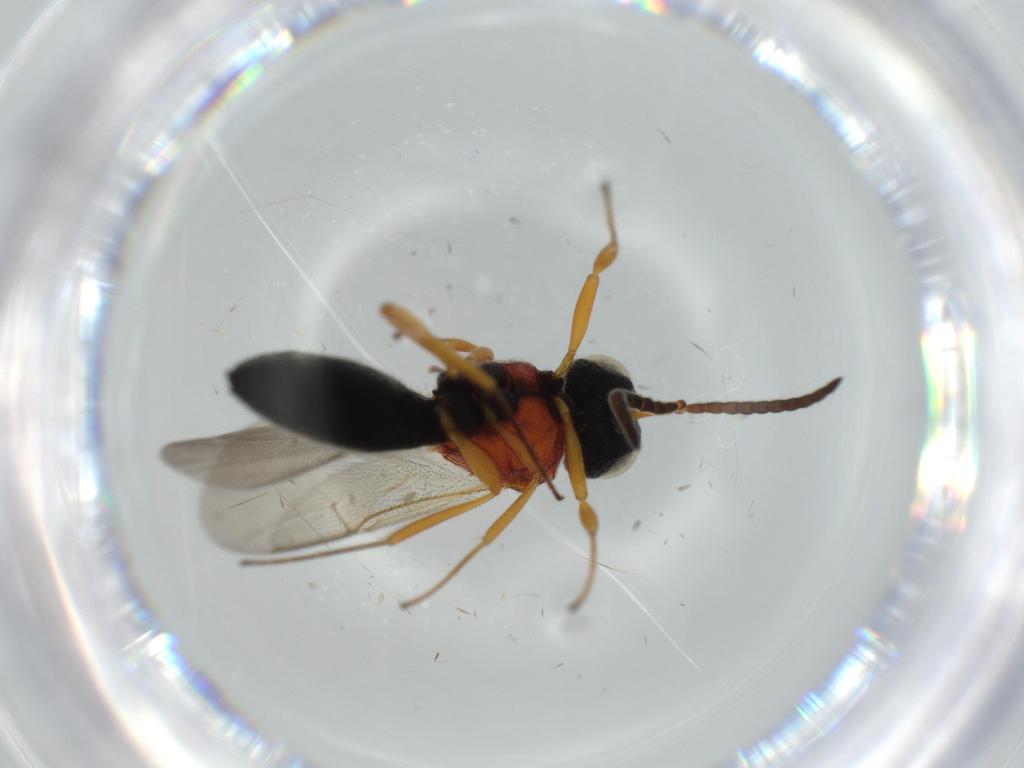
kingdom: Animalia
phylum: Arthropoda
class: Insecta
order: Hymenoptera
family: Scelionidae
